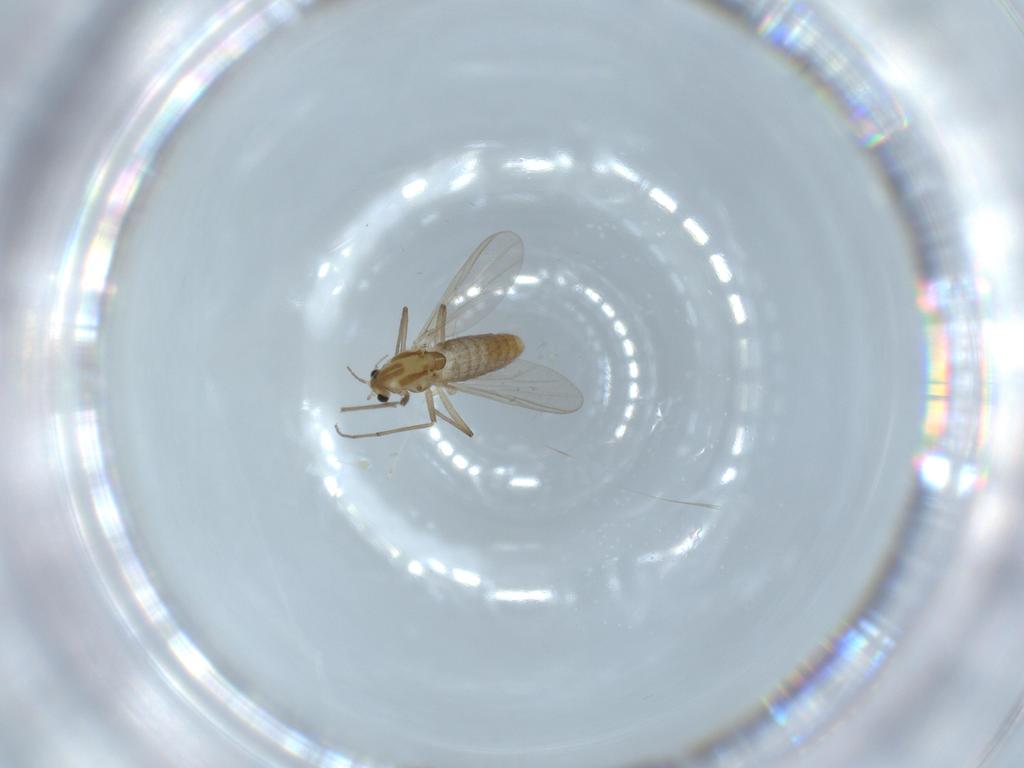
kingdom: Animalia
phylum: Arthropoda
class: Insecta
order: Diptera
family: Chironomidae
